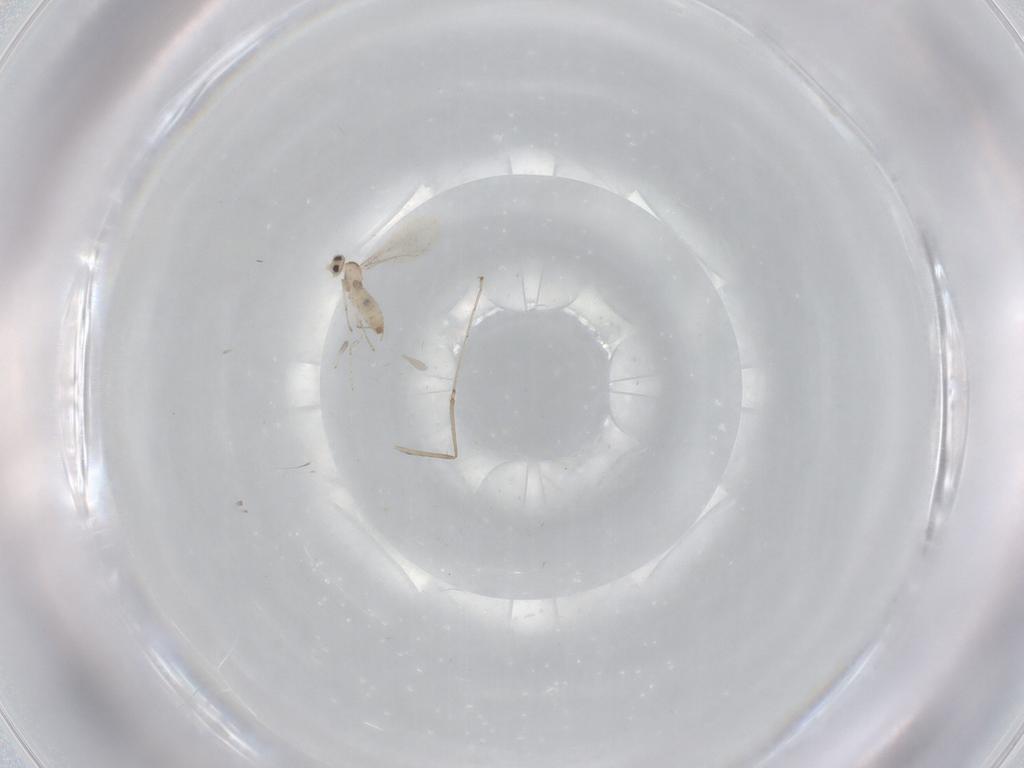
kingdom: Animalia
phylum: Arthropoda
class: Insecta
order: Diptera
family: Cecidomyiidae
